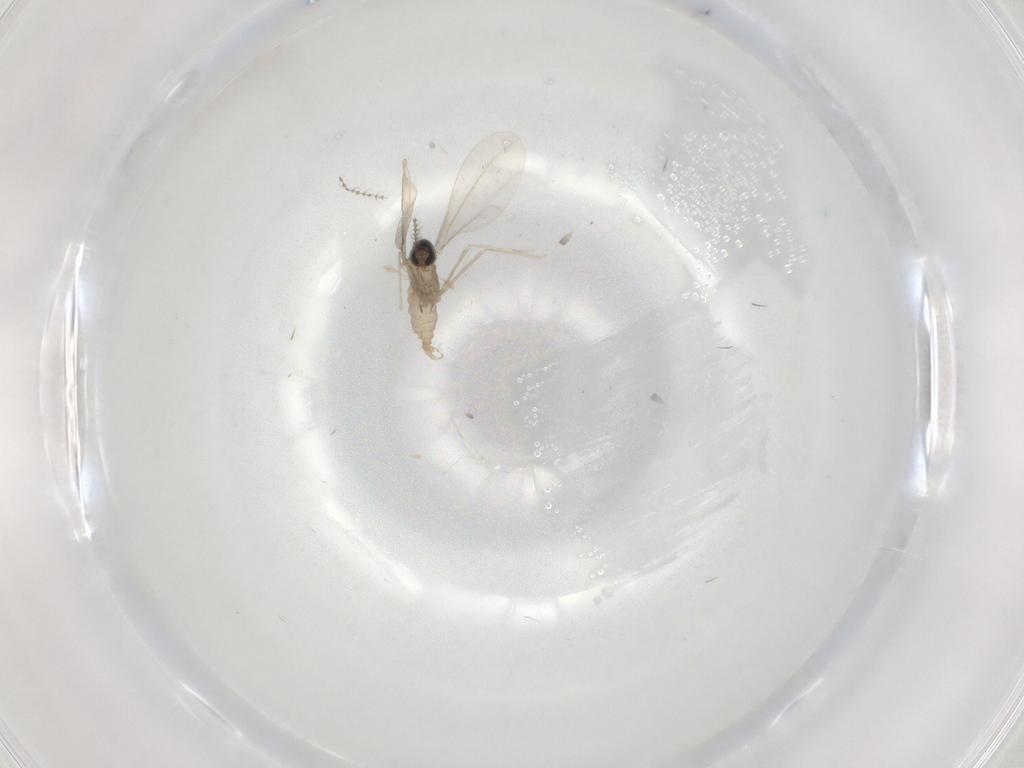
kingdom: Animalia
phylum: Arthropoda
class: Insecta
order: Diptera
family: Cecidomyiidae
